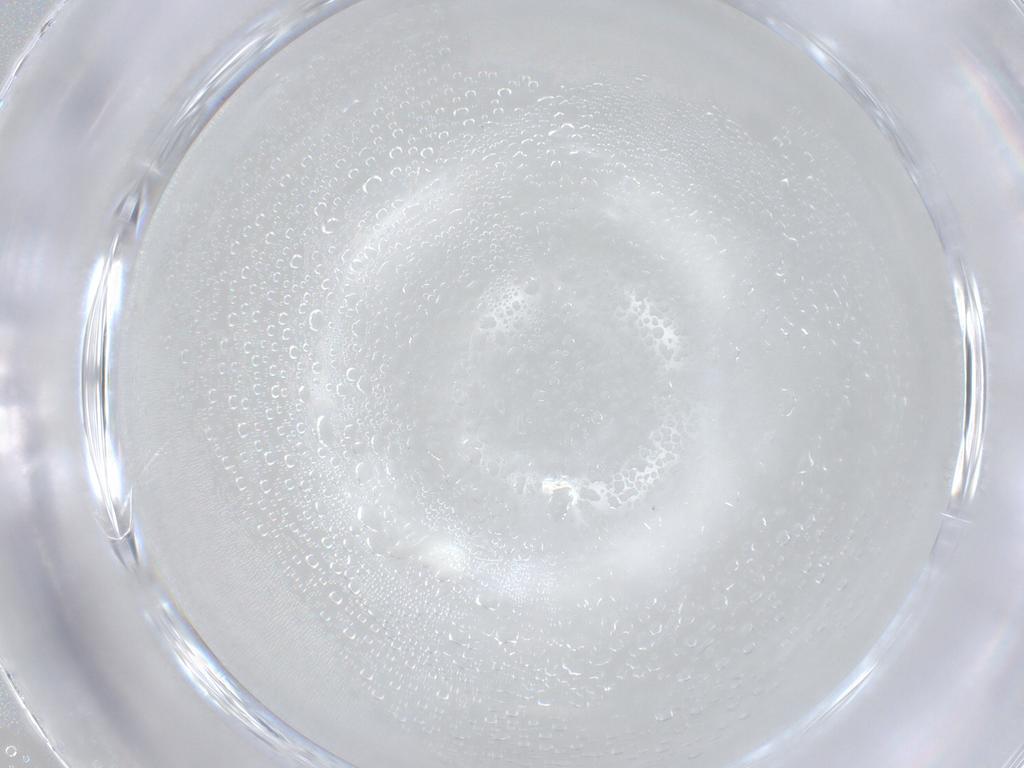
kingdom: Animalia
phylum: Arthropoda
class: Insecta
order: Diptera
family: Phoridae
